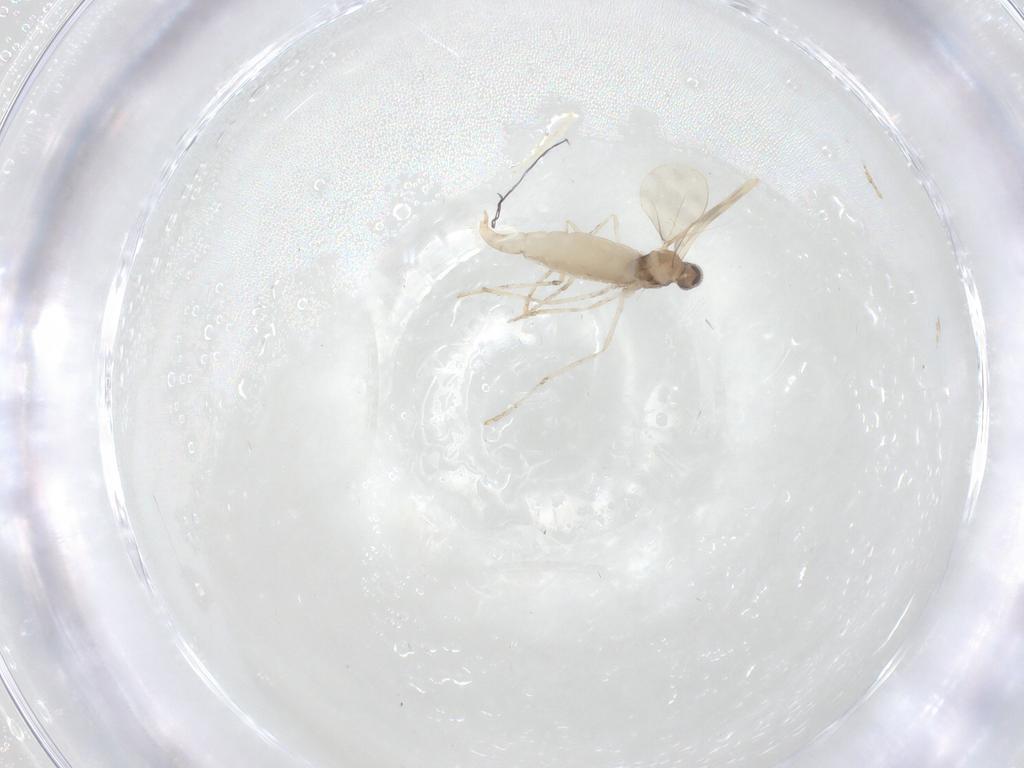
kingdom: Animalia
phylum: Arthropoda
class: Insecta
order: Diptera
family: Cecidomyiidae
